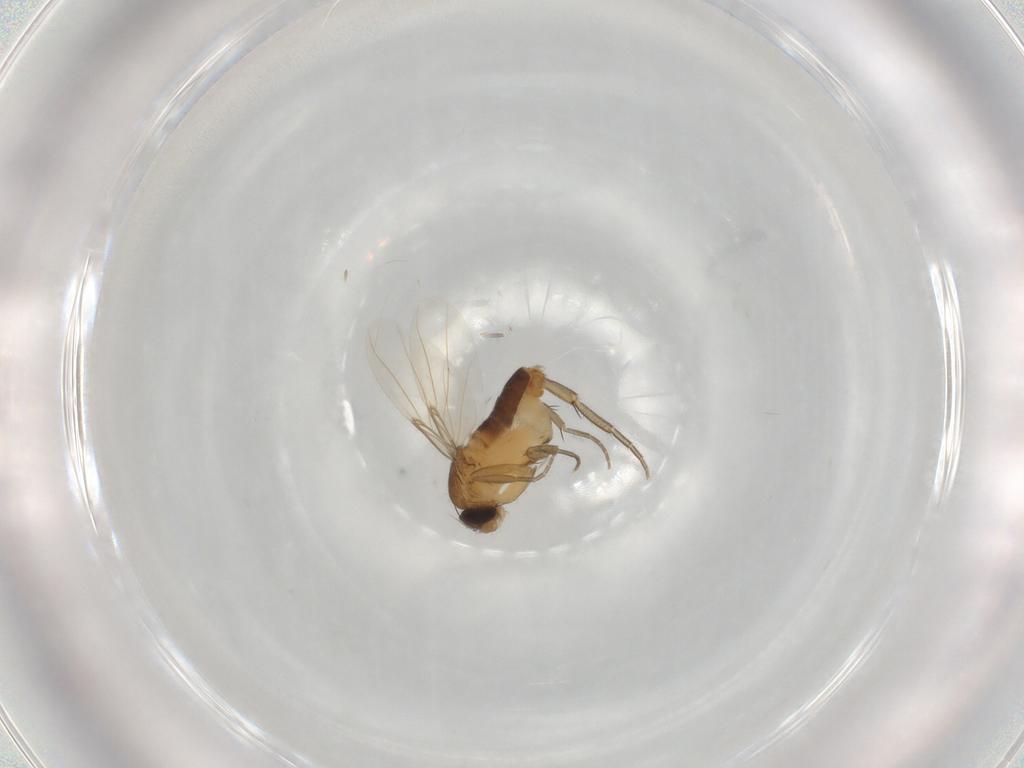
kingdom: Animalia
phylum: Arthropoda
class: Insecta
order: Diptera
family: Phoridae
